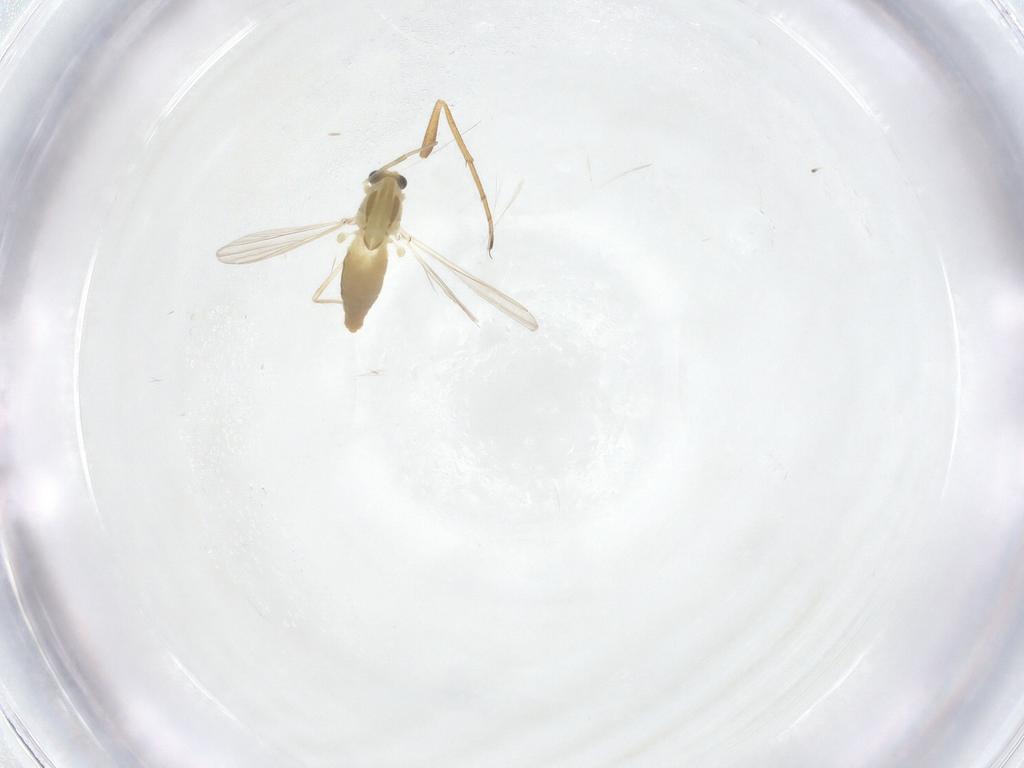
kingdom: Animalia
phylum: Arthropoda
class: Insecta
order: Diptera
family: Chironomidae
